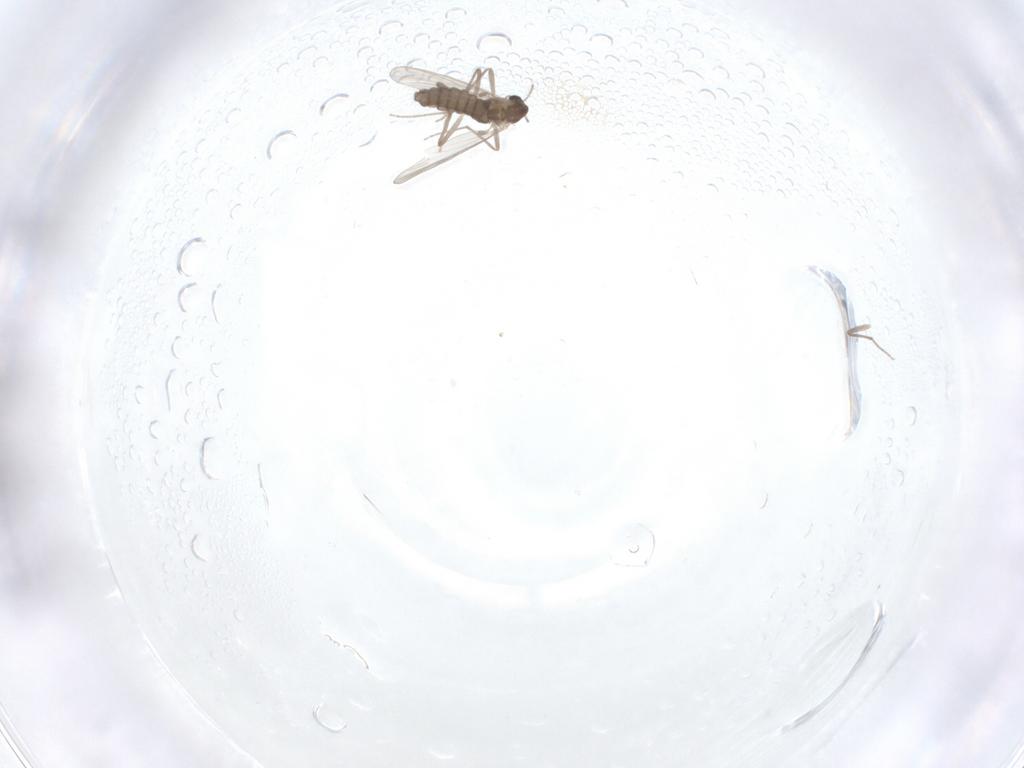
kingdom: Animalia
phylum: Arthropoda
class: Insecta
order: Diptera
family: Chironomidae
